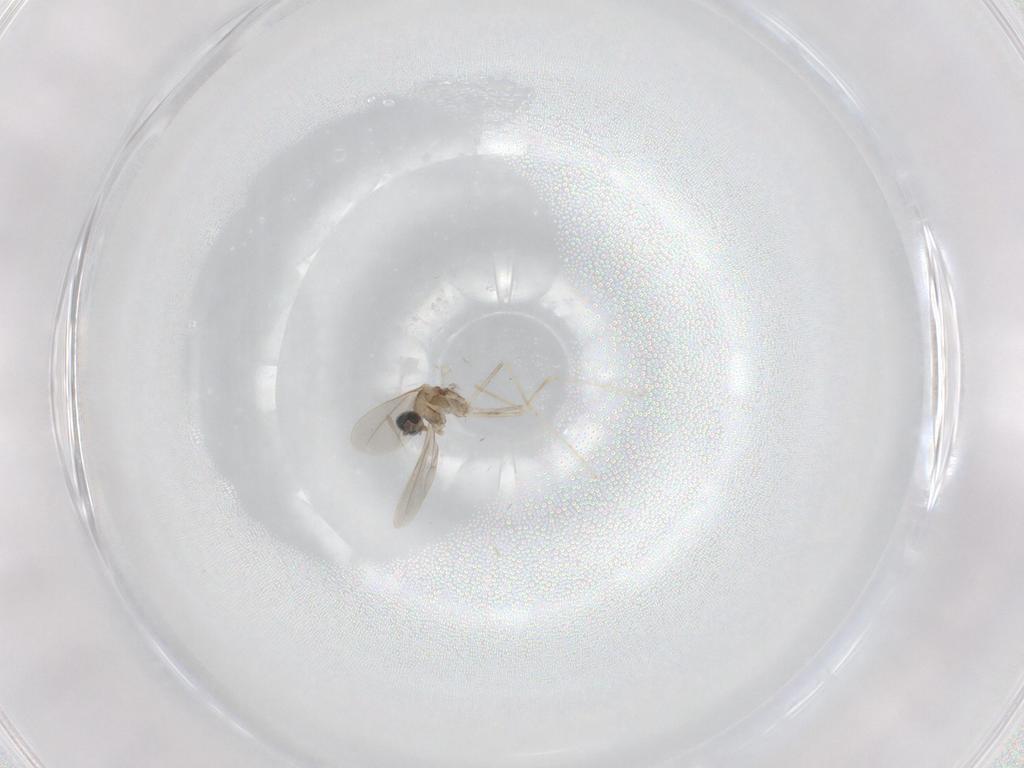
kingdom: Animalia
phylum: Arthropoda
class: Insecta
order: Diptera
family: Cecidomyiidae
